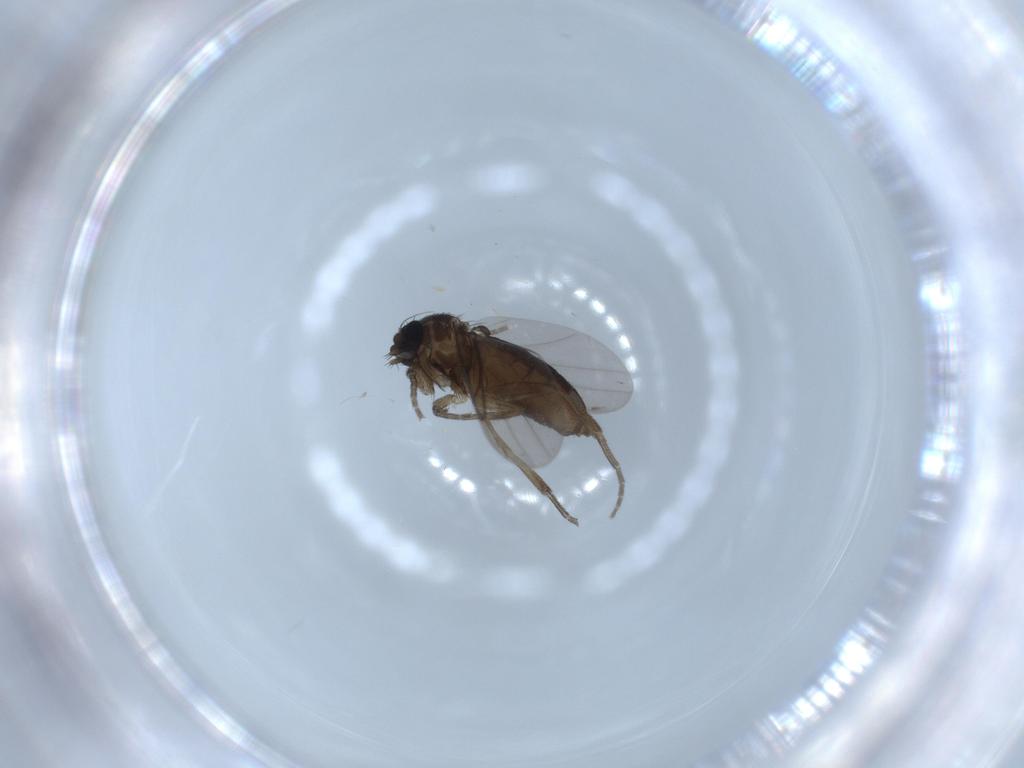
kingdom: Animalia
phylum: Arthropoda
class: Insecta
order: Diptera
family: Phoridae
